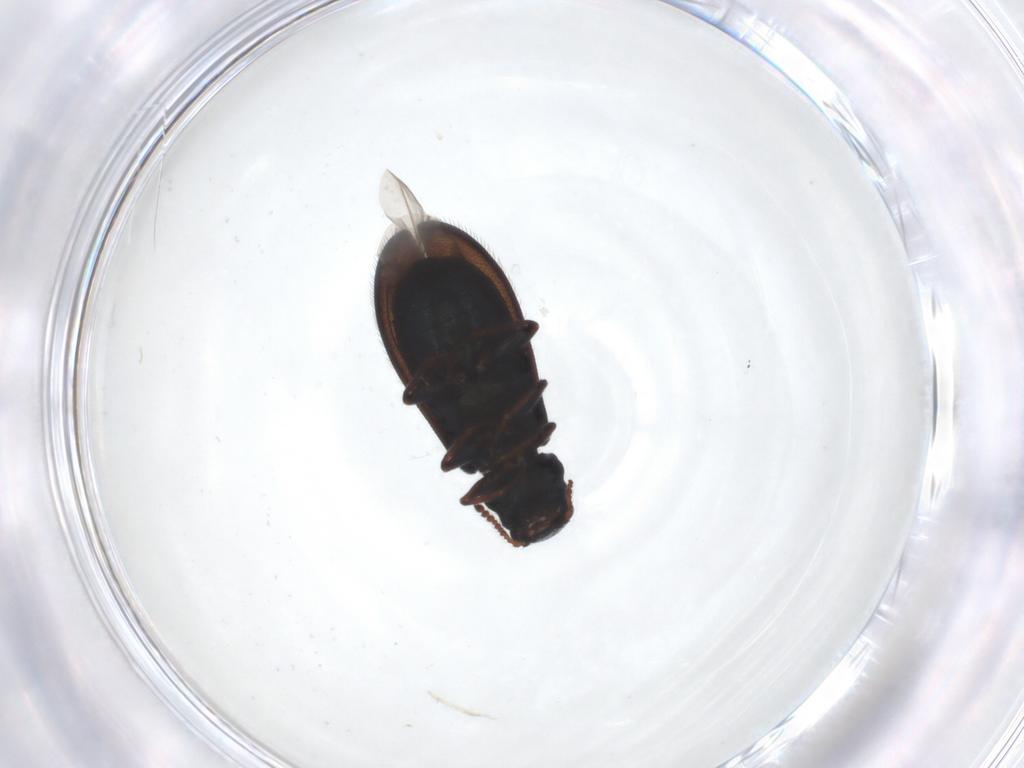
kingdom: Animalia
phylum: Arthropoda
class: Insecta
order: Coleoptera
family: Melyridae
